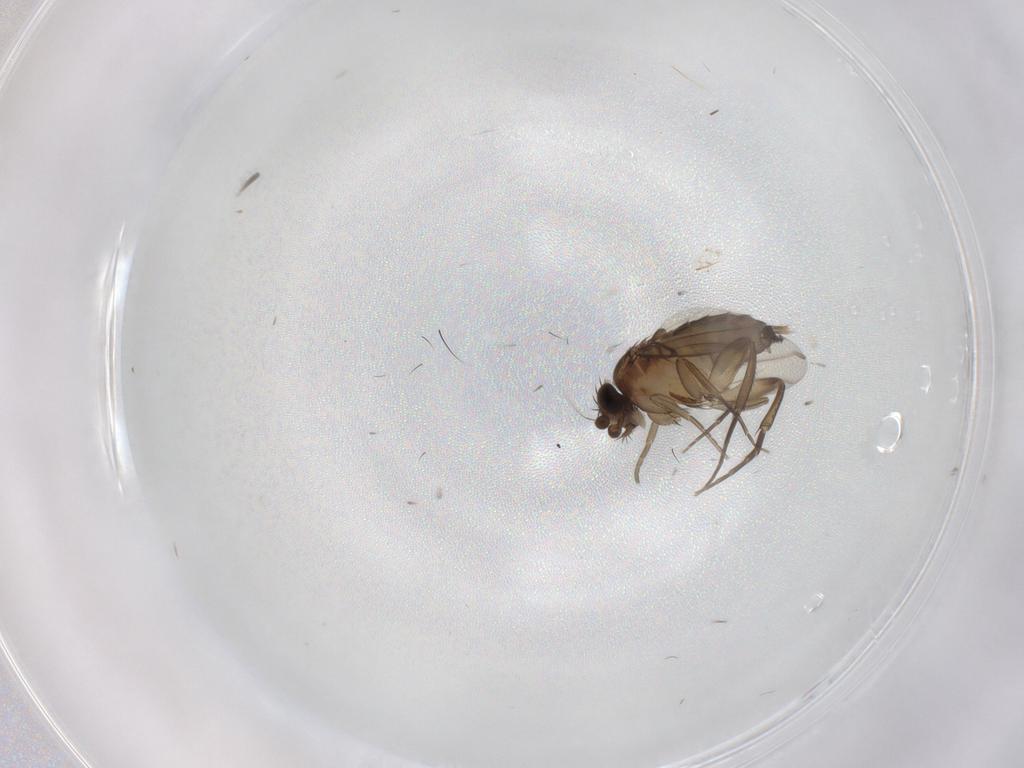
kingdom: Animalia
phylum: Arthropoda
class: Insecta
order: Diptera
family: Phoridae
